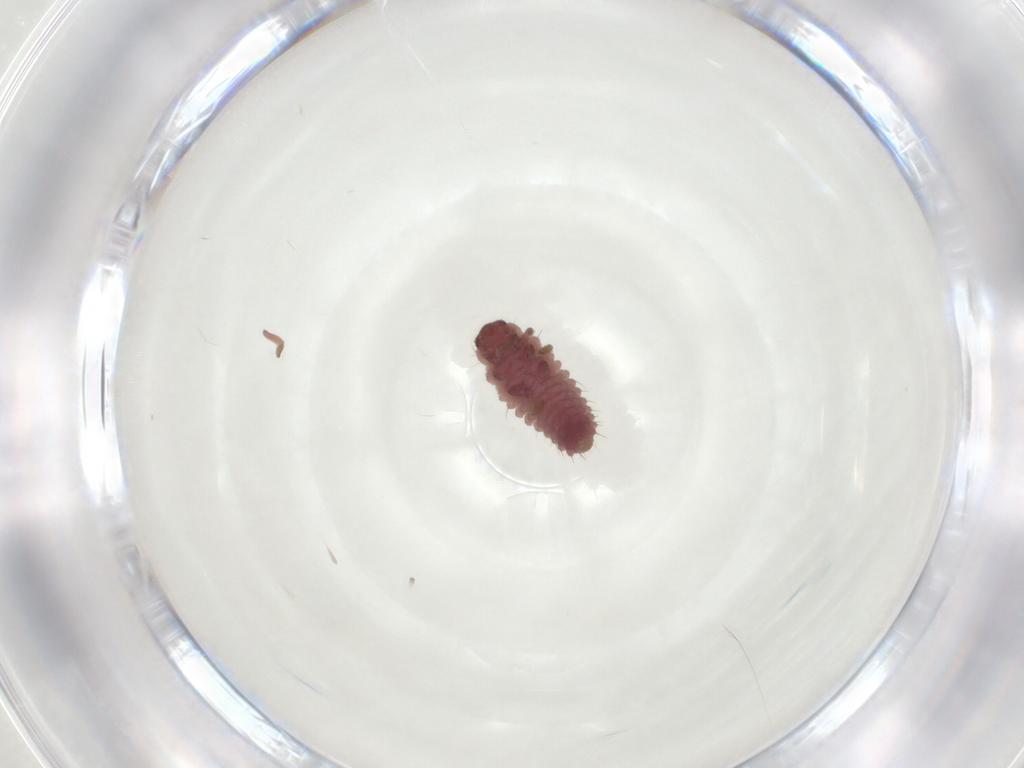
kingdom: Animalia
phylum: Arthropoda
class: Insecta
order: Coleoptera
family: Coccinellidae
